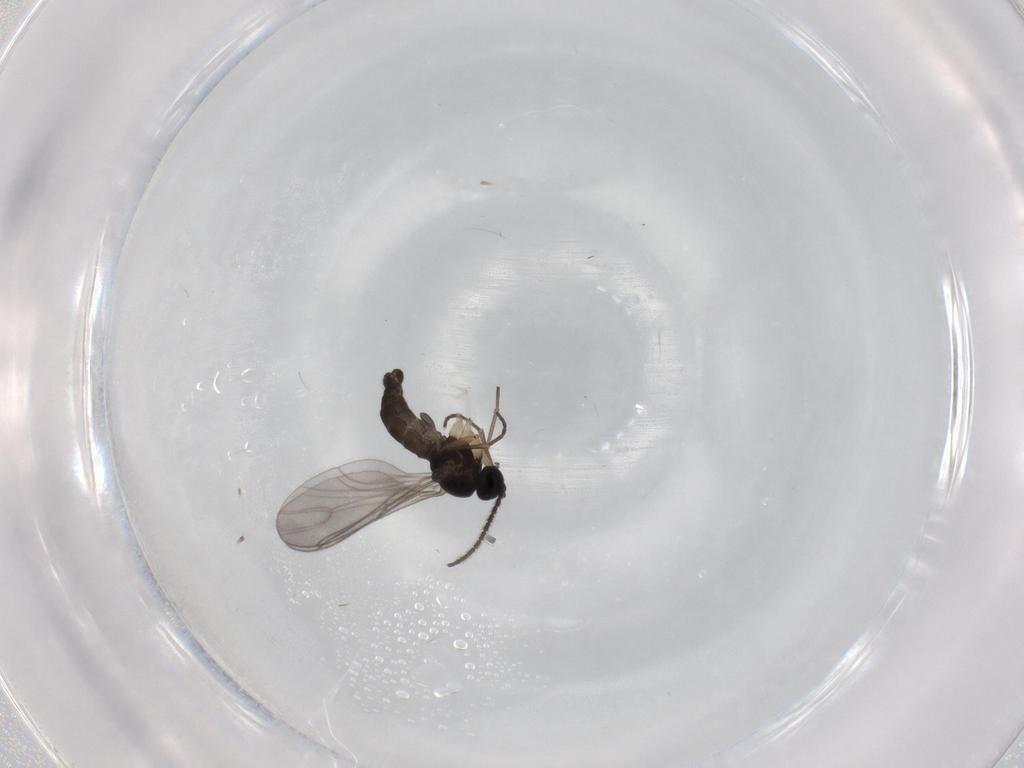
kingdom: Animalia
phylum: Arthropoda
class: Insecta
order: Diptera
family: Sciaridae
